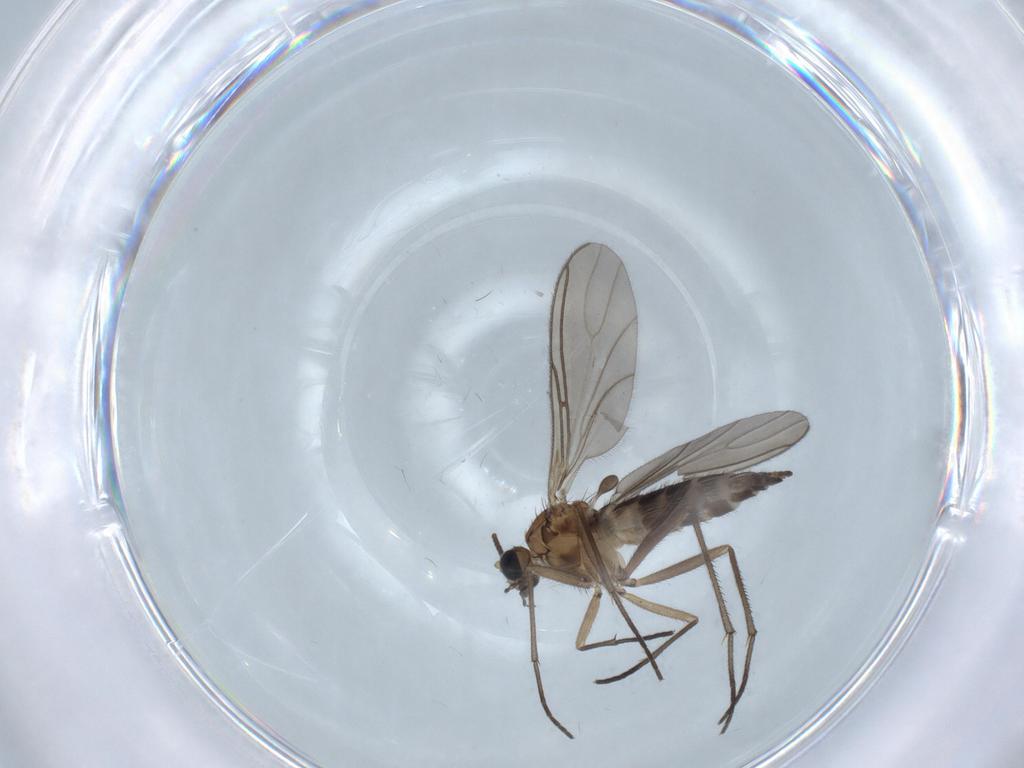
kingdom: Animalia
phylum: Arthropoda
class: Insecta
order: Diptera
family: Sciaridae
